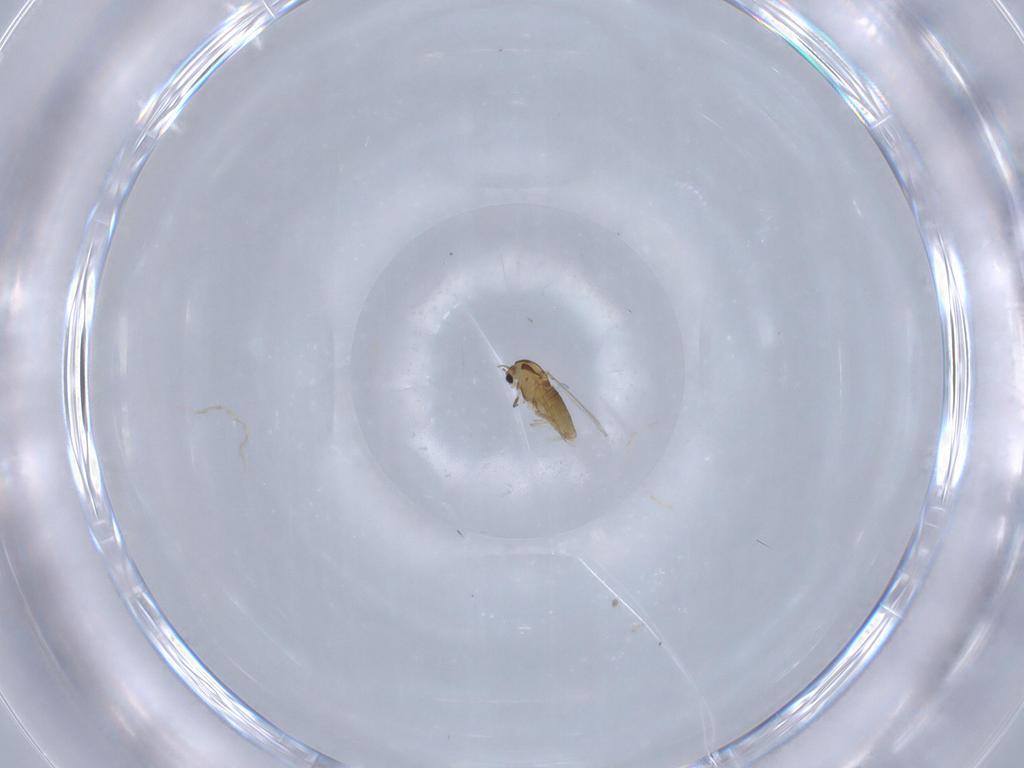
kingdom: Animalia
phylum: Arthropoda
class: Insecta
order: Diptera
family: Chironomidae
